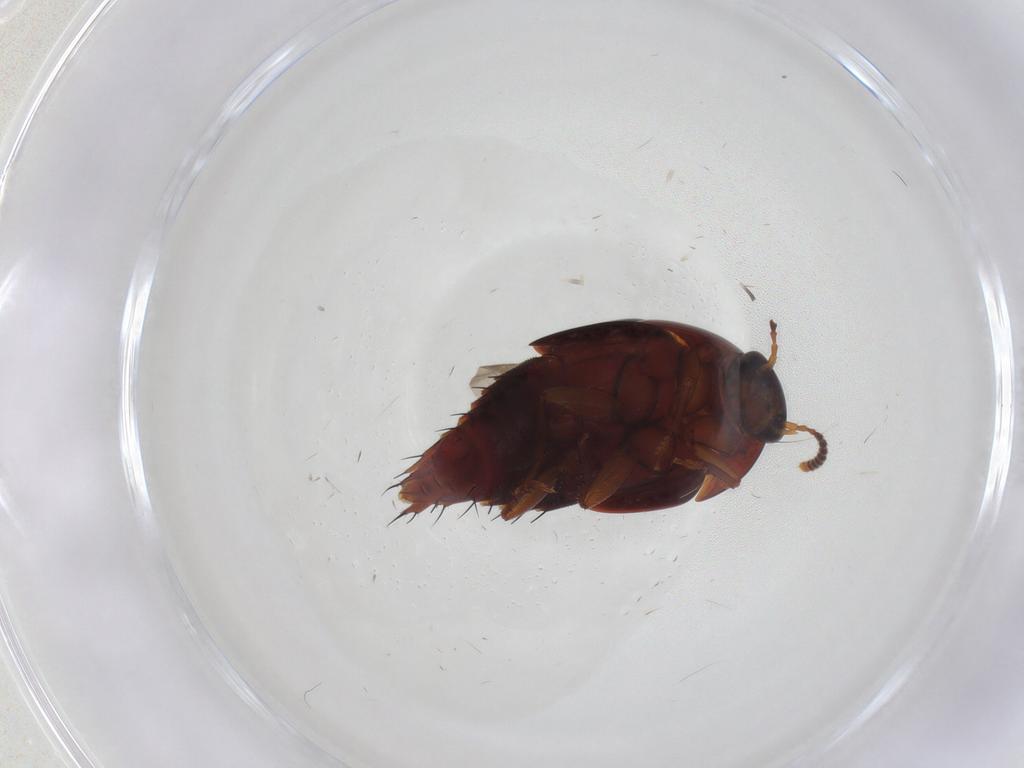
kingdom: Animalia
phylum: Arthropoda
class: Insecta
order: Coleoptera
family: Staphylinidae
